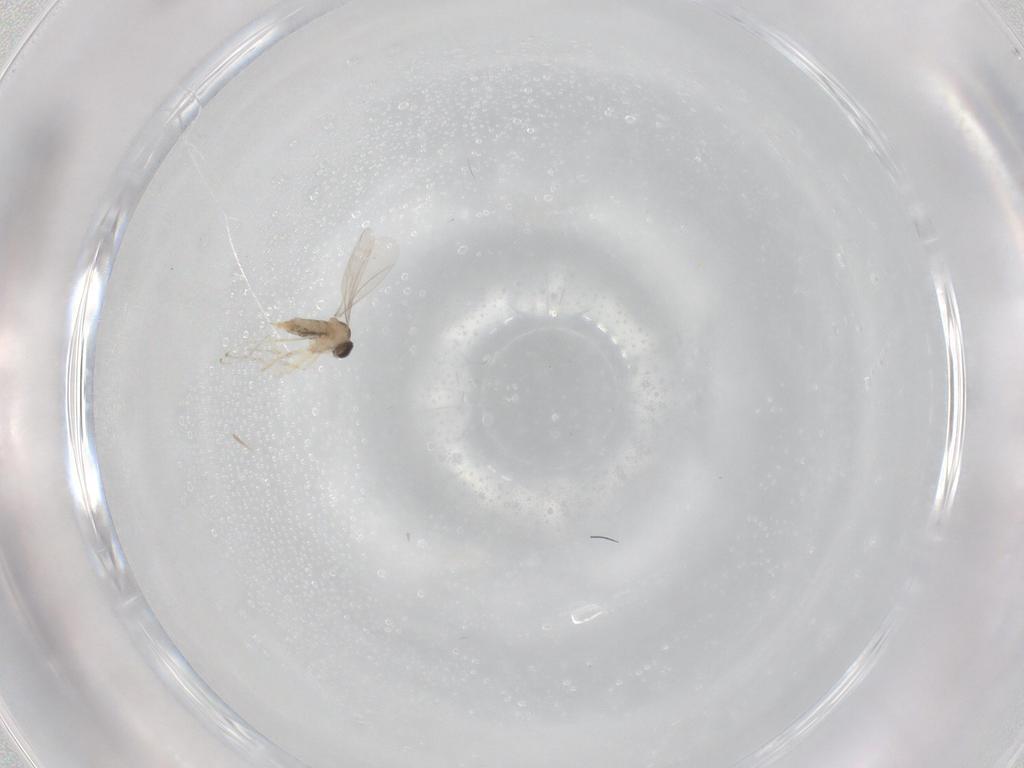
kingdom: Animalia
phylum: Arthropoda
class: Insecta
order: Diptera
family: Cecidomyiidae
